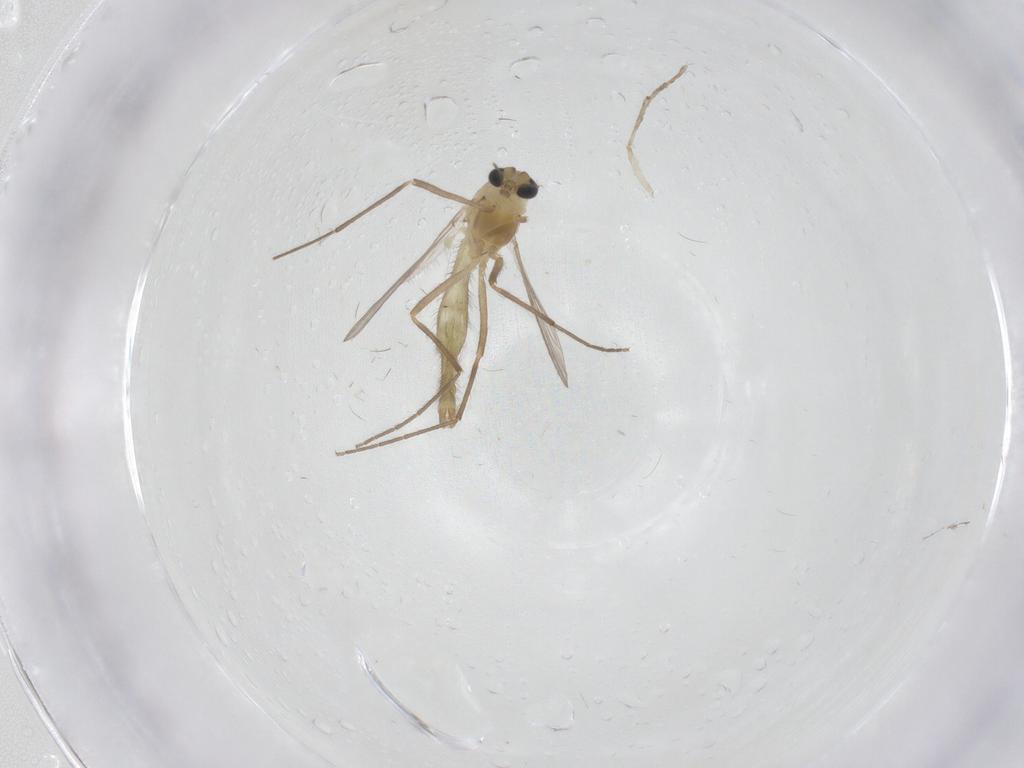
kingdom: Animalia
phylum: Arthropoda
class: Insecta
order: Diptera
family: Chironomidae
